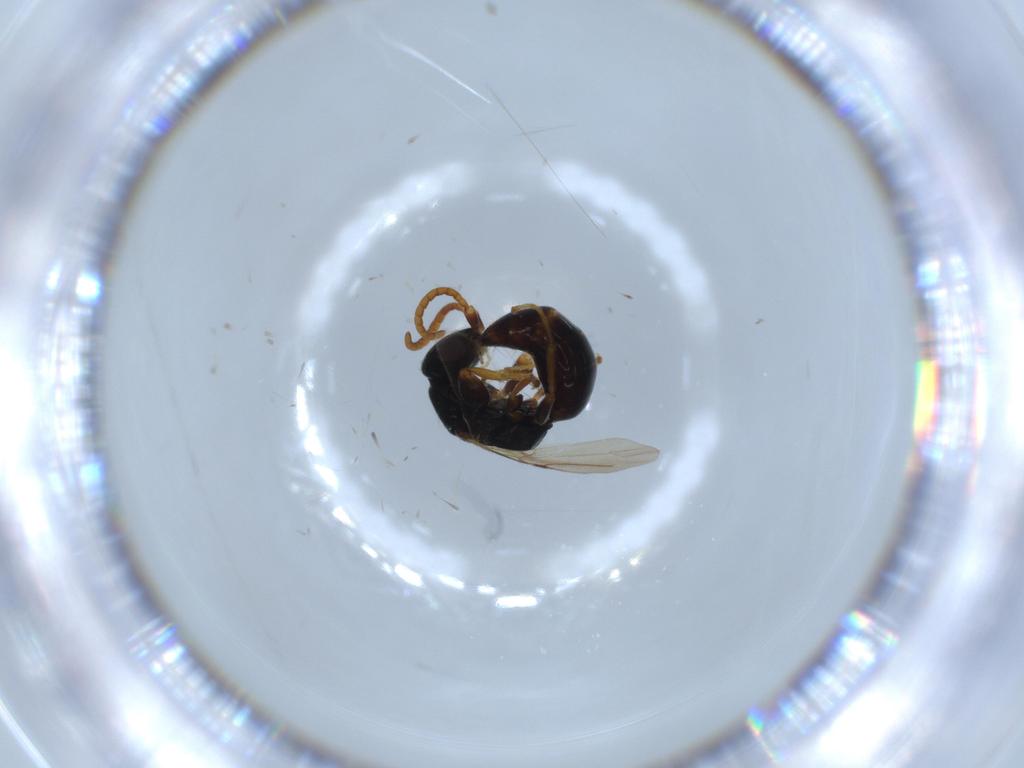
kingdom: Animalia
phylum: Arthropoda
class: Insecta
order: Hymenoptera
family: Bethylidae
